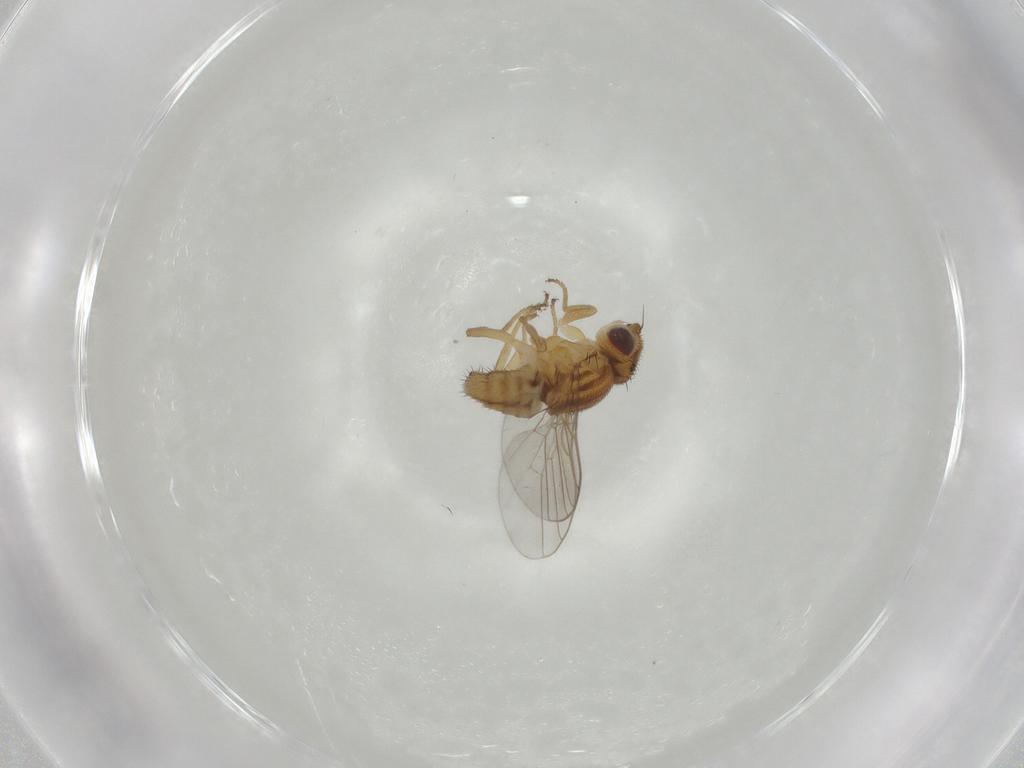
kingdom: Animalia
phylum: Arthropoda
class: Insecta
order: Diptera
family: Chloropidae
